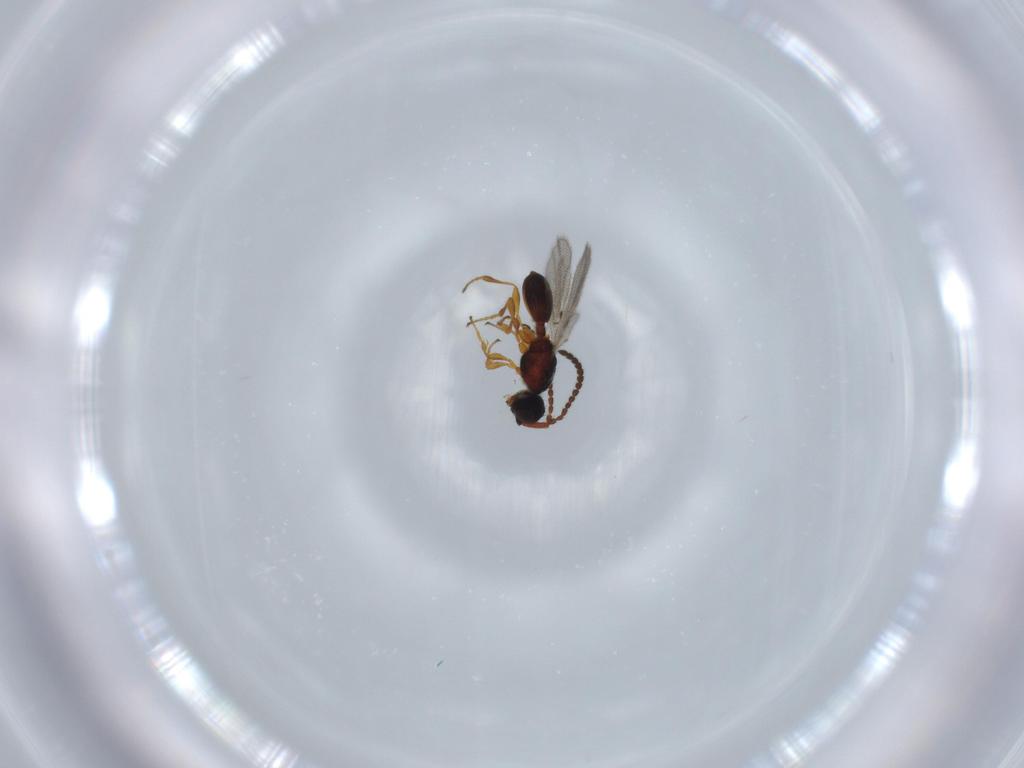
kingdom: Animalia
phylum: Arthropoda
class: Insecta
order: Hymenoptera
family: Diapriidae
